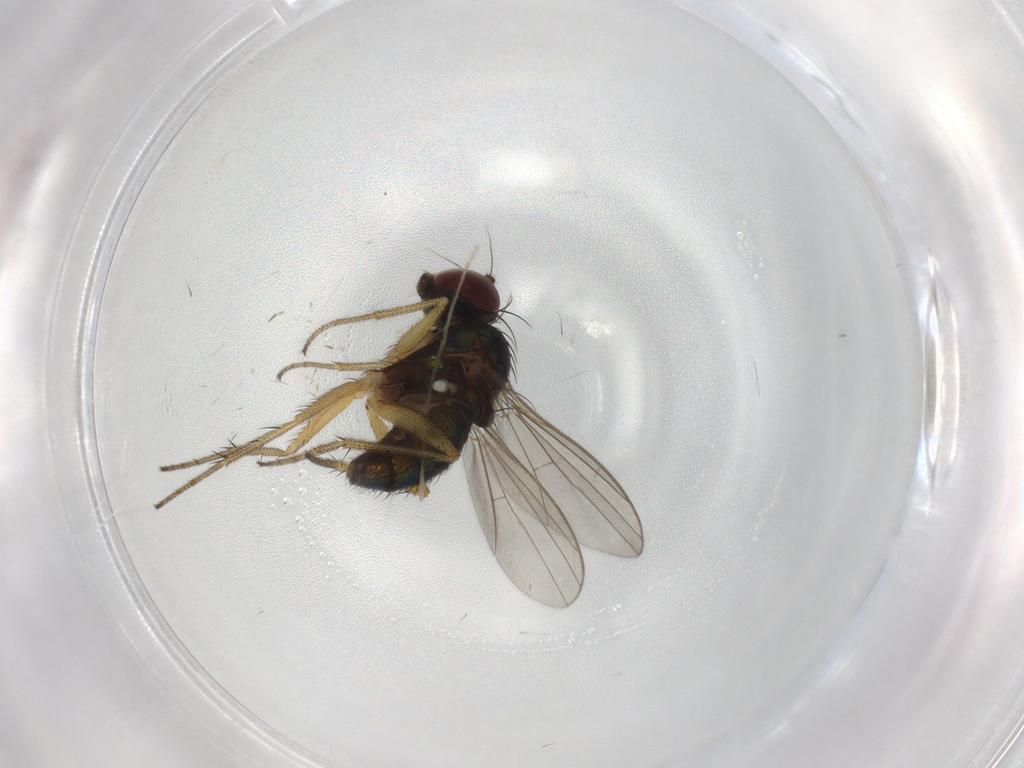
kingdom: Animalia
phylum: Arthropoda
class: Insecta
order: Diptera
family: Dolichopodidae
